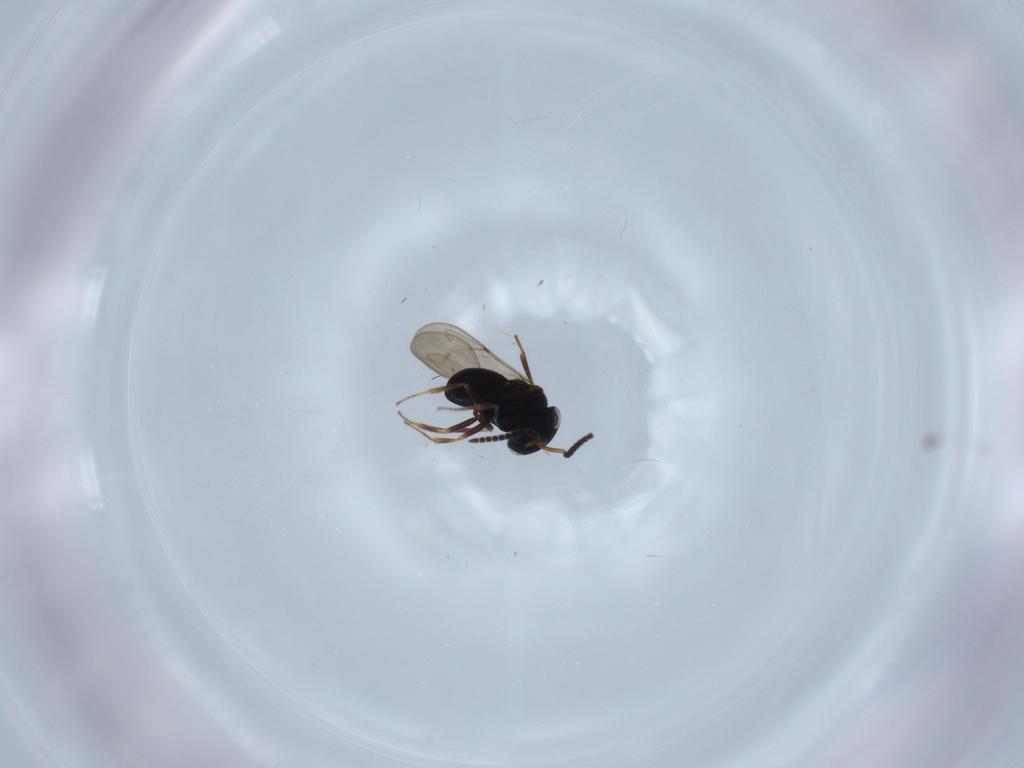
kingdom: Animalia
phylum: Arthropoda
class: Insecta
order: Hymenoptera
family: Scelionidae
